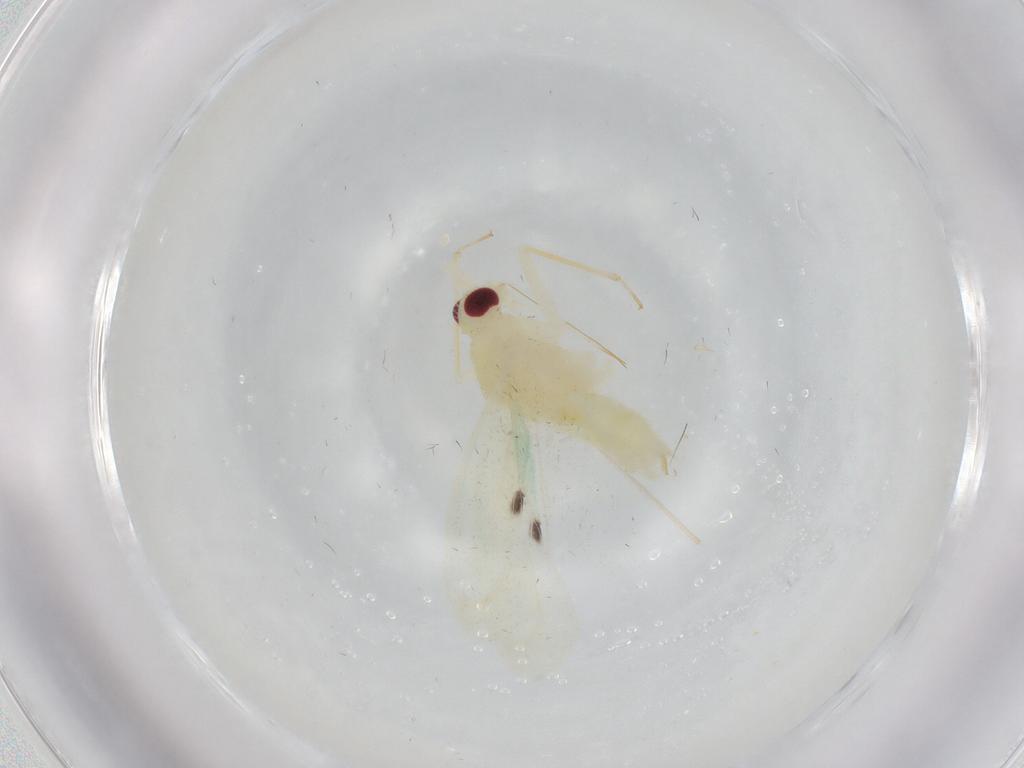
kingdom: Animalia
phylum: Arthropoda
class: Insecta
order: Hemiptera
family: Miridae
